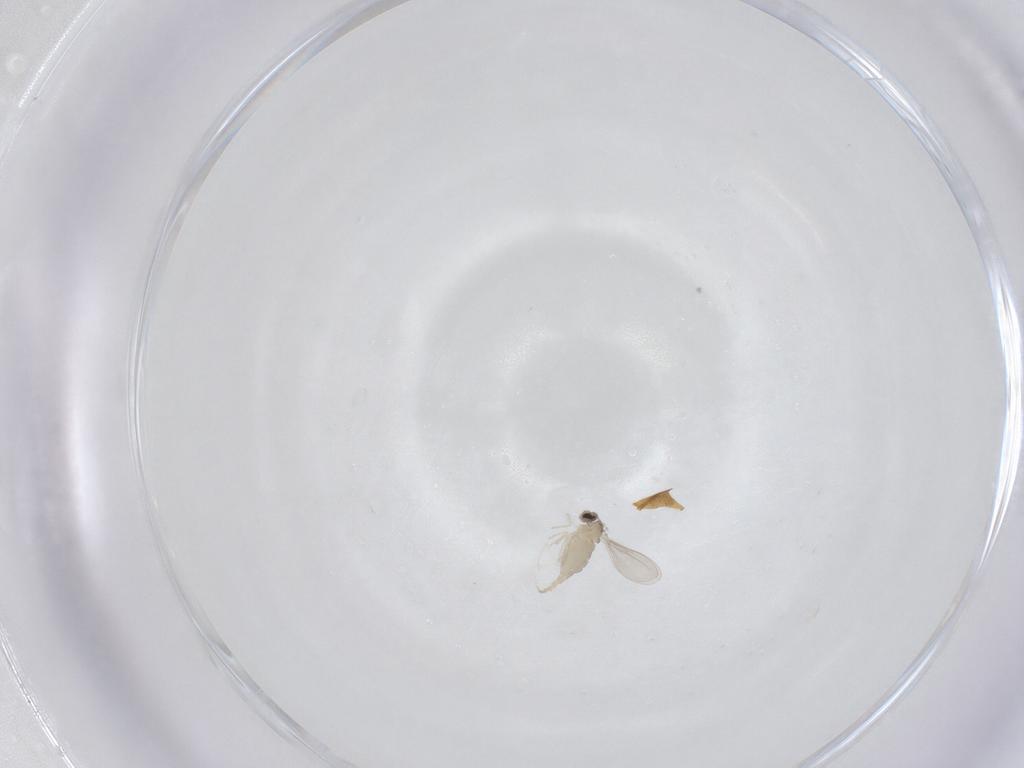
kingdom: Animalia
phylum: Arthropoda
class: Insecta
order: Diptera
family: Cecidomyiidae
